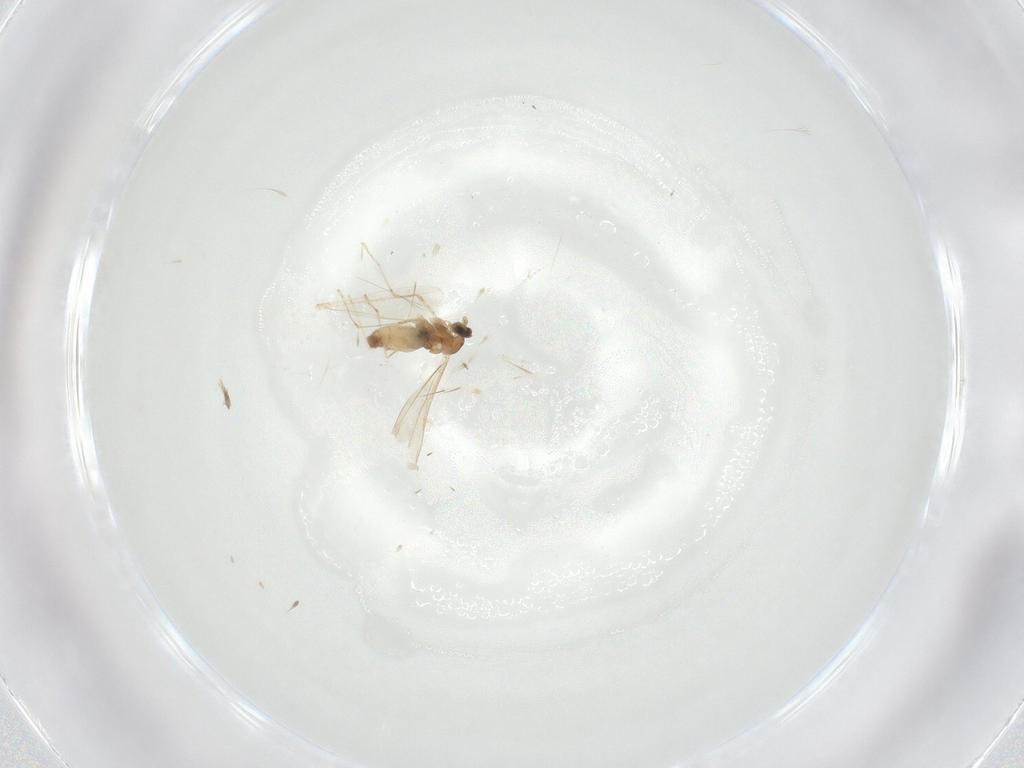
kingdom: Animalia
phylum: Arthropoda
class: Insecta
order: Diptera
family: Cecidomyiidae
